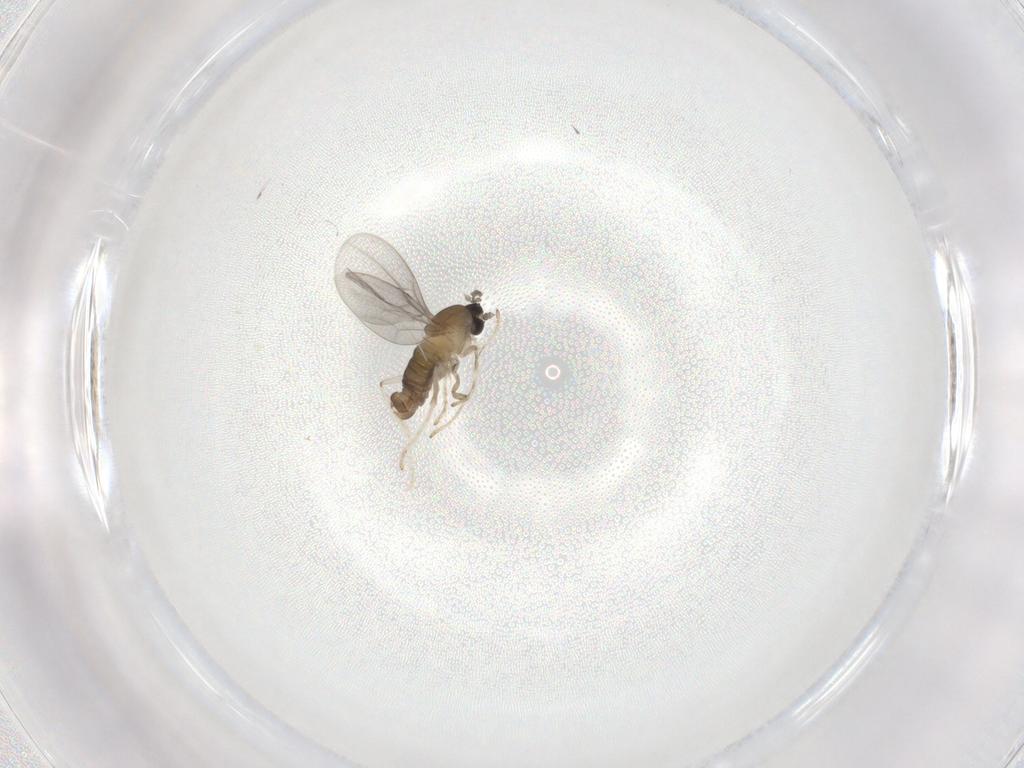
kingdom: Animalia
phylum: Arthropoda
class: Insecta
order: Diptera
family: Cecidomyiidae
